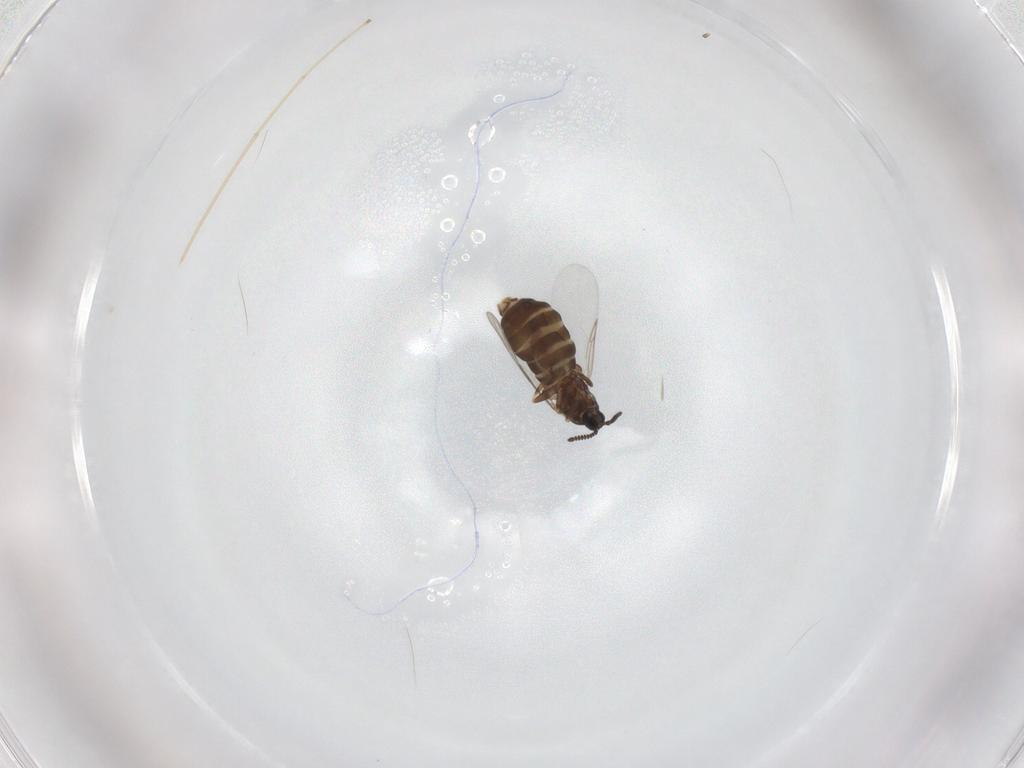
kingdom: Animalia
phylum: Arthropoda
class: Insecta
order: Diptera
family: Scatopsidae
